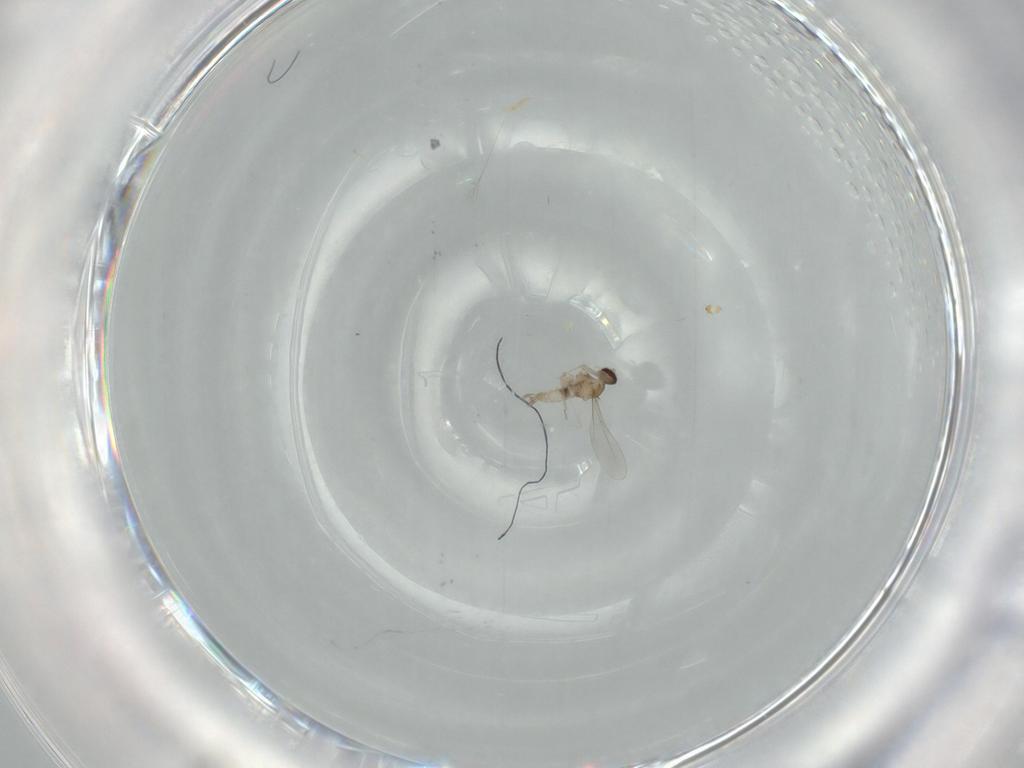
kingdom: Animalia
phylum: Arthropoda
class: Insecta
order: Diptera
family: Hybotidae
